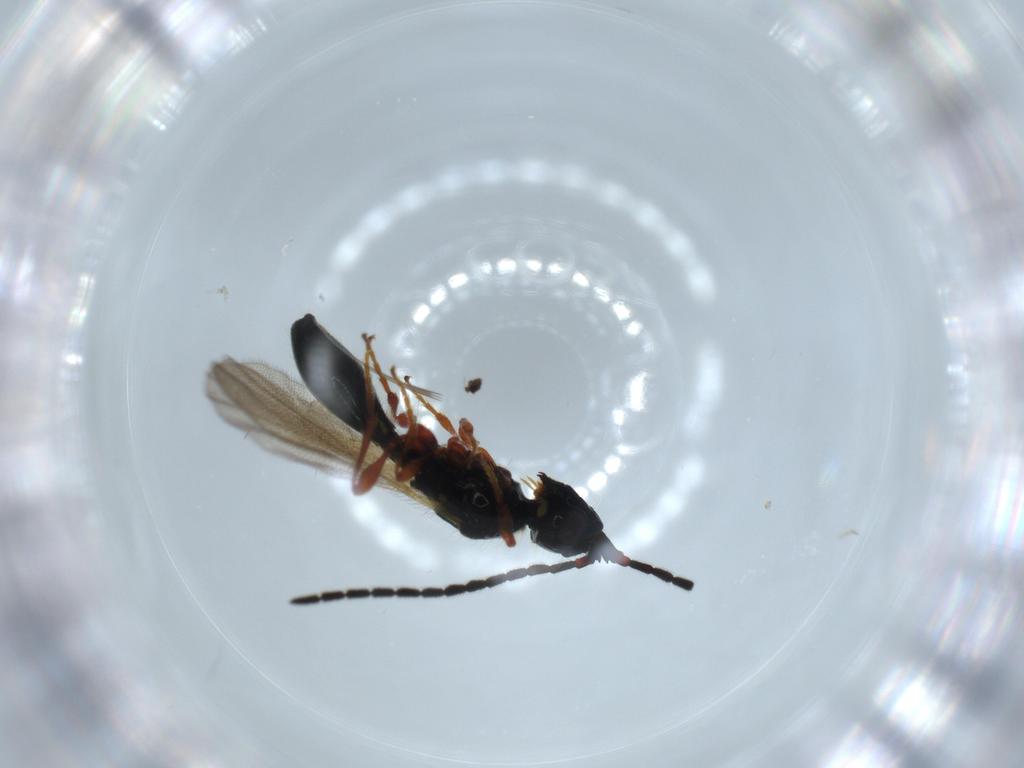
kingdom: Animalia
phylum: Arthropoda
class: Insecta
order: Hymenoptera
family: Diapriidae
